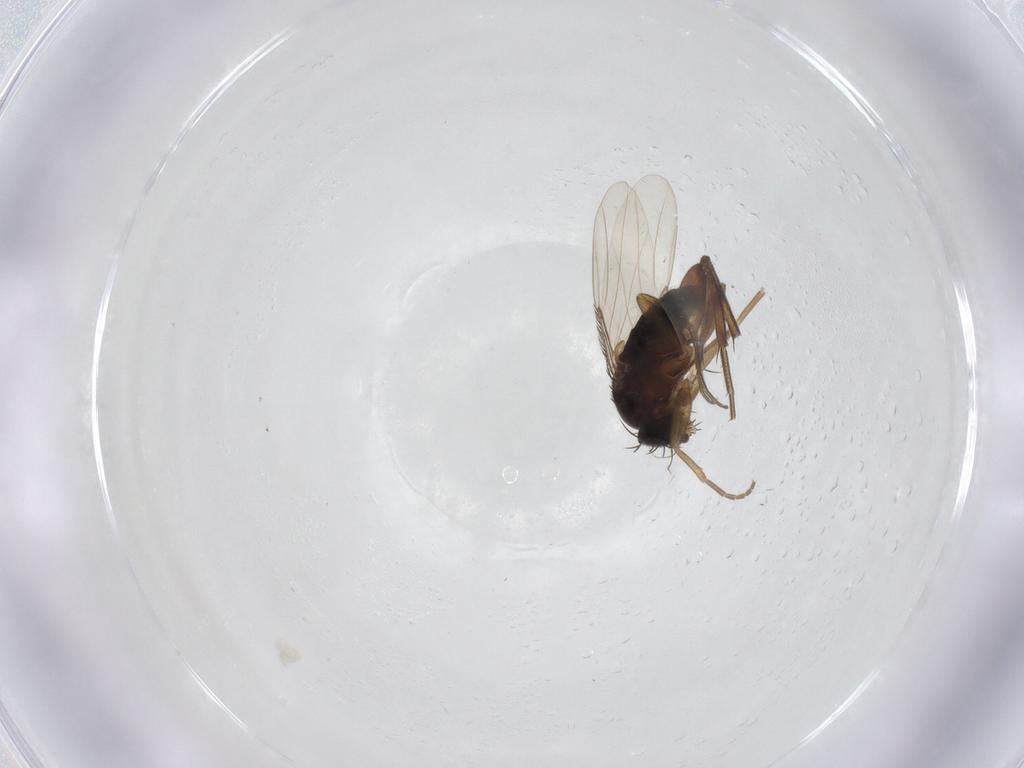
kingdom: Animalia
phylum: Arthropoda
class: Insecta
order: Diptera
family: Phoridae
